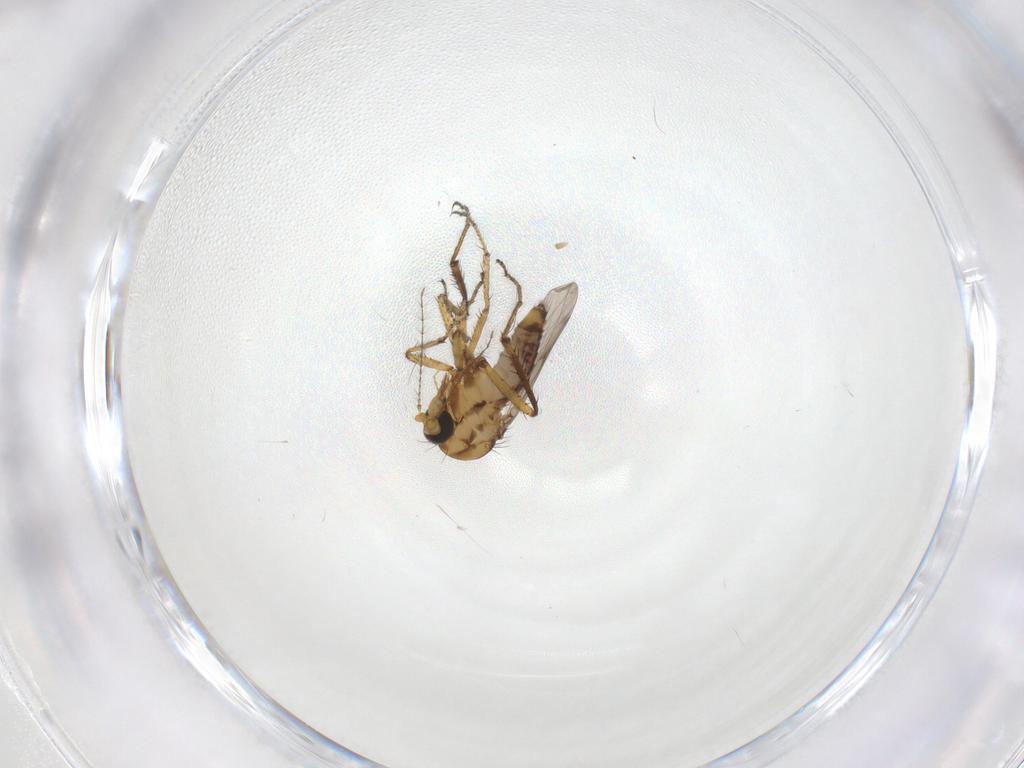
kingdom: Animalia
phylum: Arthropoda
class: Insecta
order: Diptera
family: Ceratopogonidae
